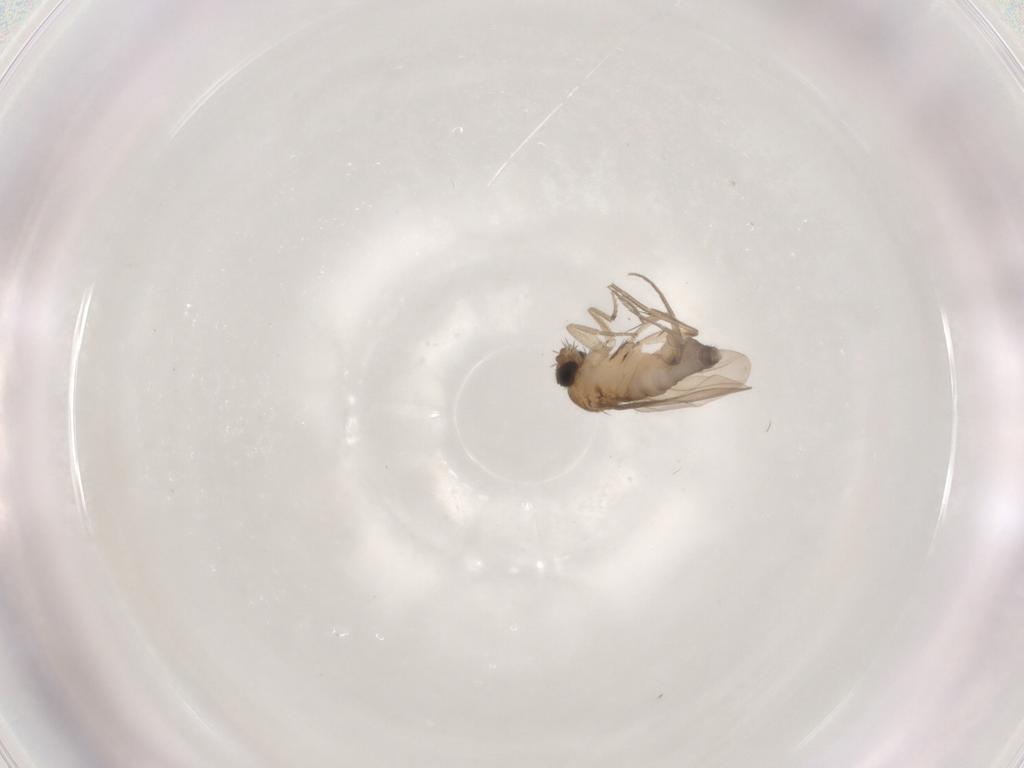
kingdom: Animalia
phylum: Arthropoda
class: Insecta
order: Diptera
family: Phoridae
